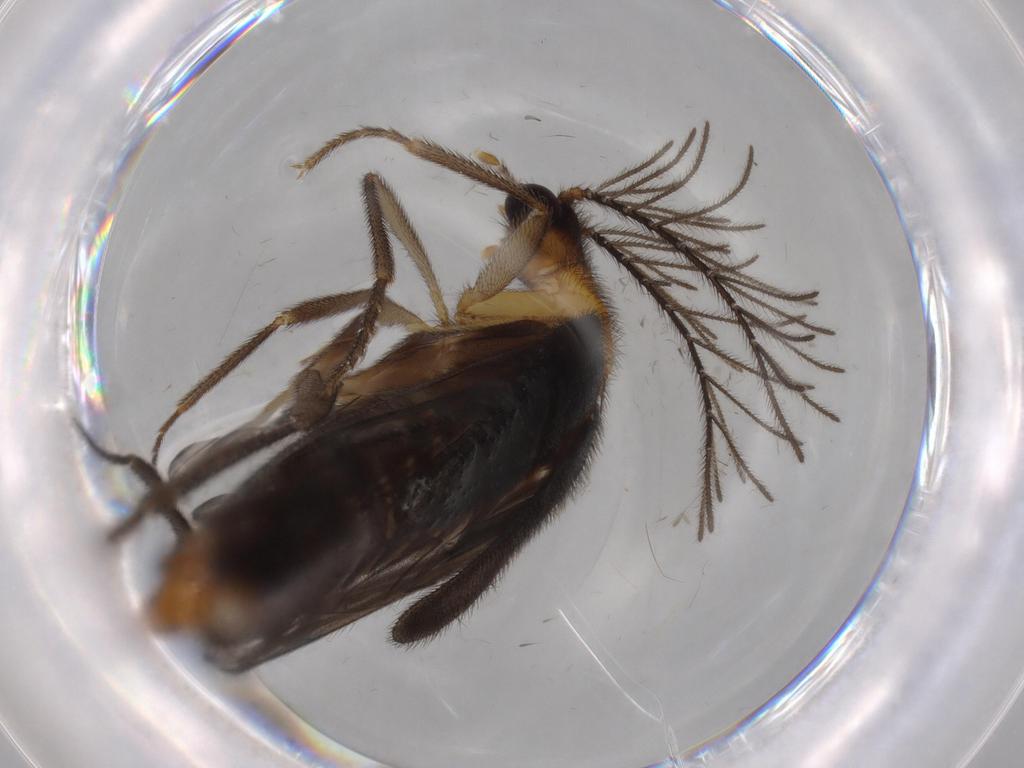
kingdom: Animalia
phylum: Arthropoda
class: Insecta
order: Coleoptera
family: Phengodidae
